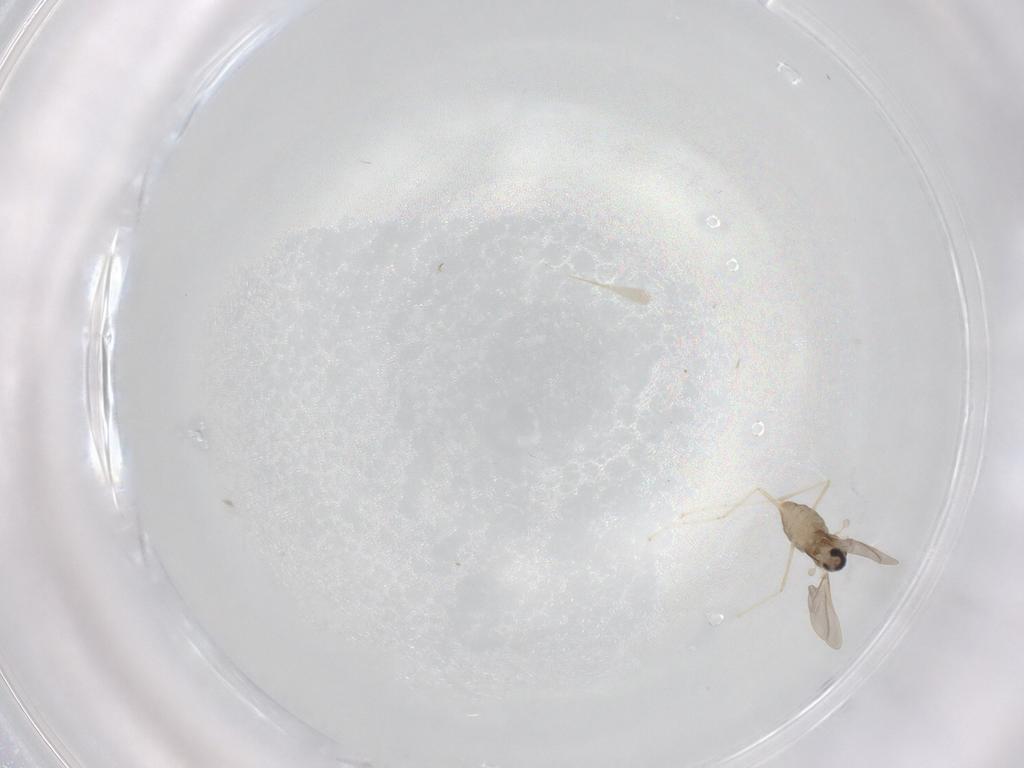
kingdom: Animalia
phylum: Arthropoda
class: Insecta
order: Diptera
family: Cecidomyiidae
